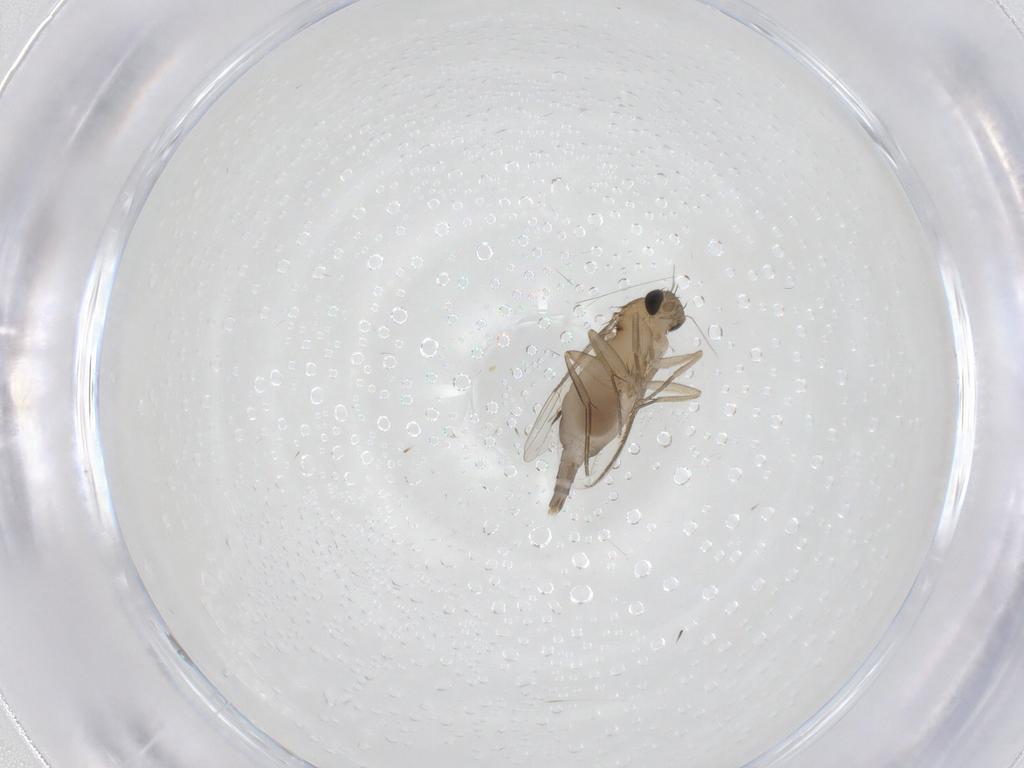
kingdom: Animalia
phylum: Arthropoda
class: Insecta
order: Diptera
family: Phoridae
